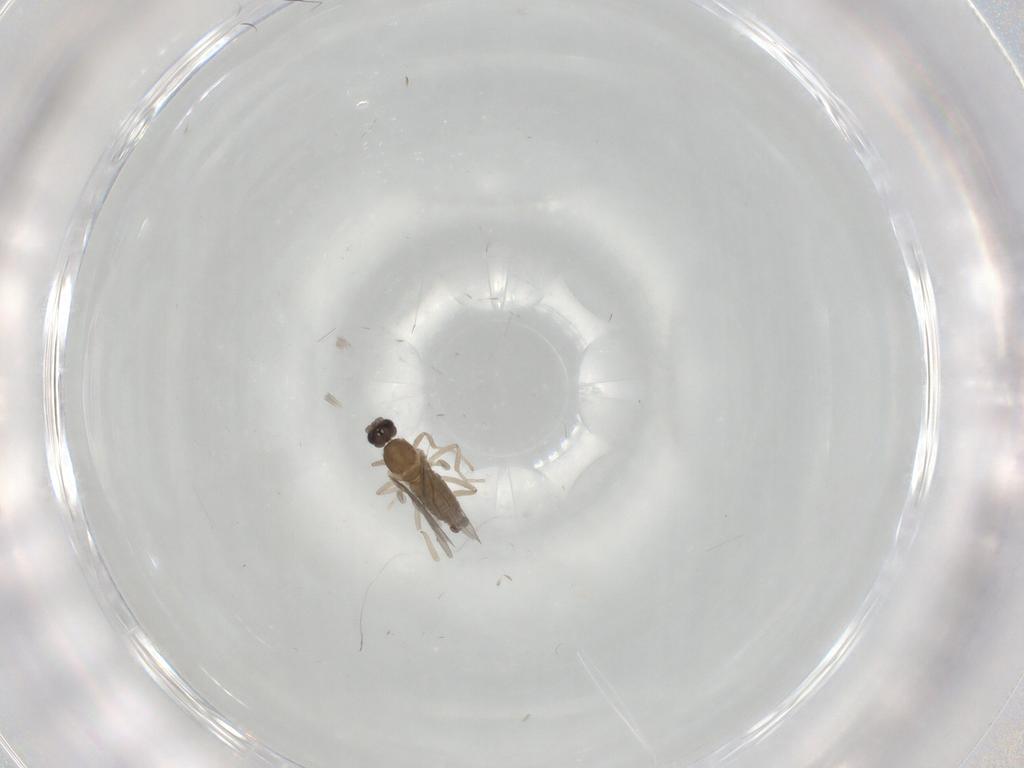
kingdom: Animalia
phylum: Arthropoda
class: Insecta
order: Diptera
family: Cecidomyiidae
